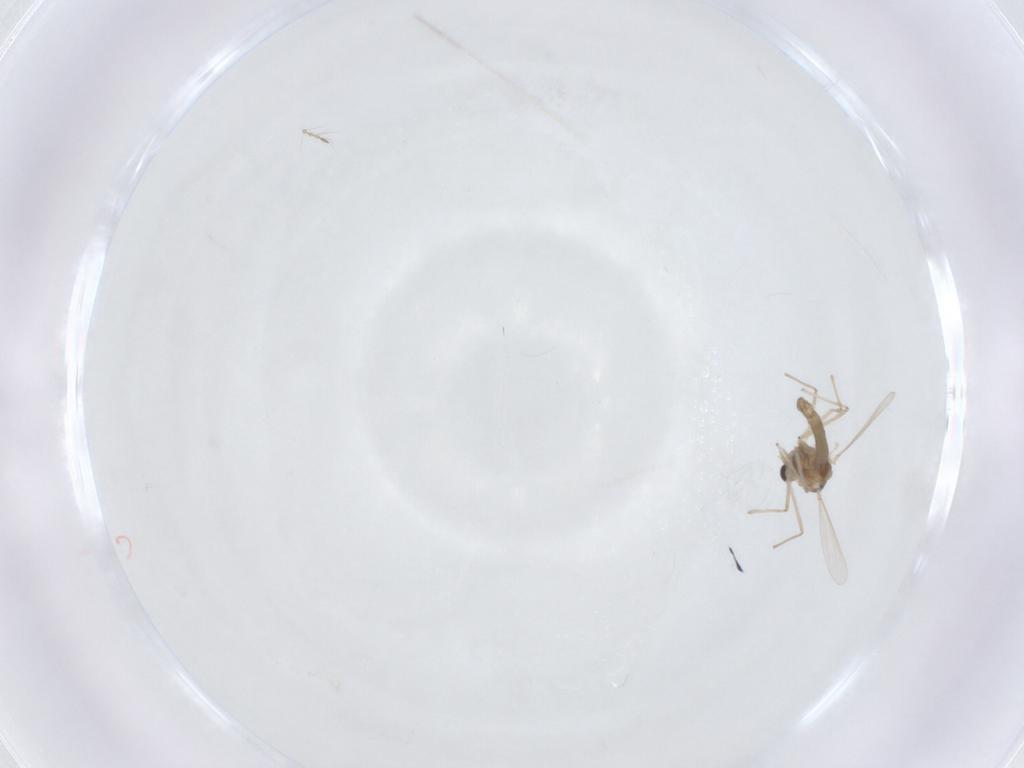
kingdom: Animalia
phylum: Arthropoda
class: Insecta
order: Diptera
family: Chironomidae
